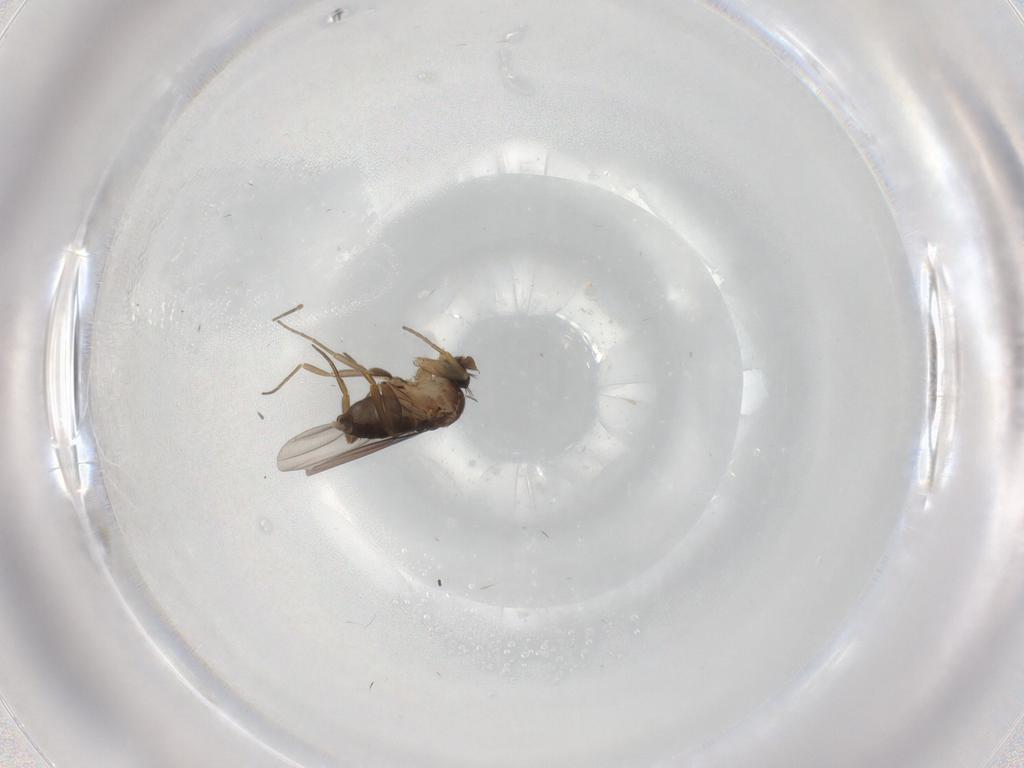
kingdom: Animalia
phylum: Arthropoda
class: Insecta
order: Diptera
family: Phoridae
